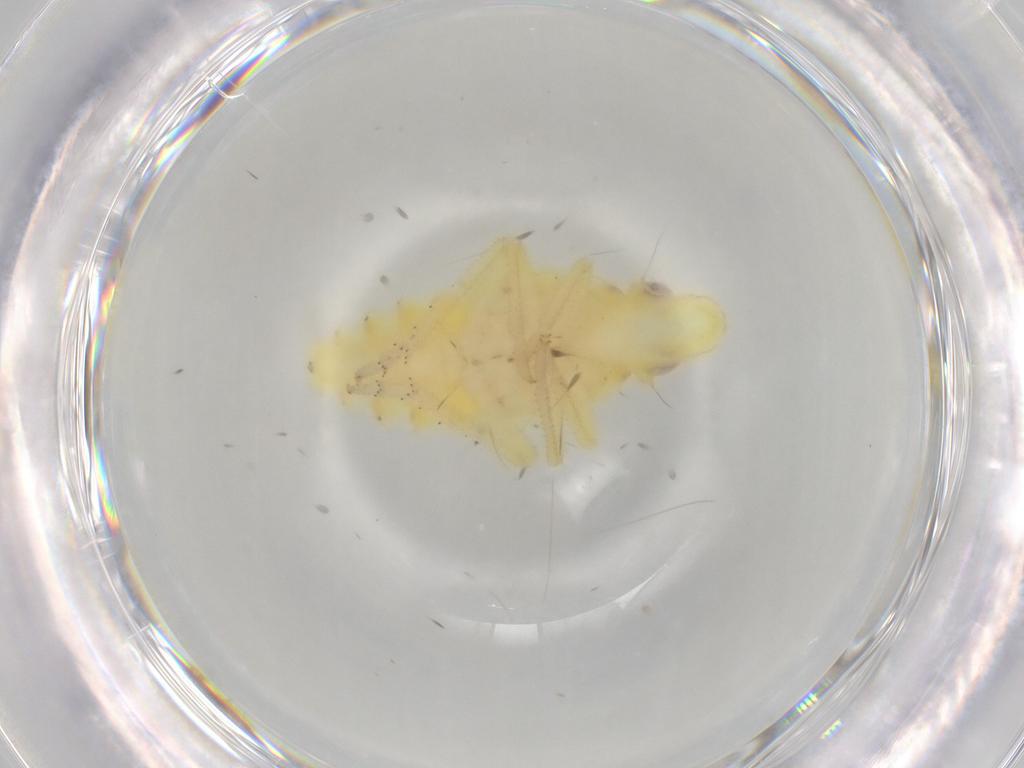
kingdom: Animalia
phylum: Arthropoda
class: Insecta
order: Hemiptera
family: Tropiduchidae
